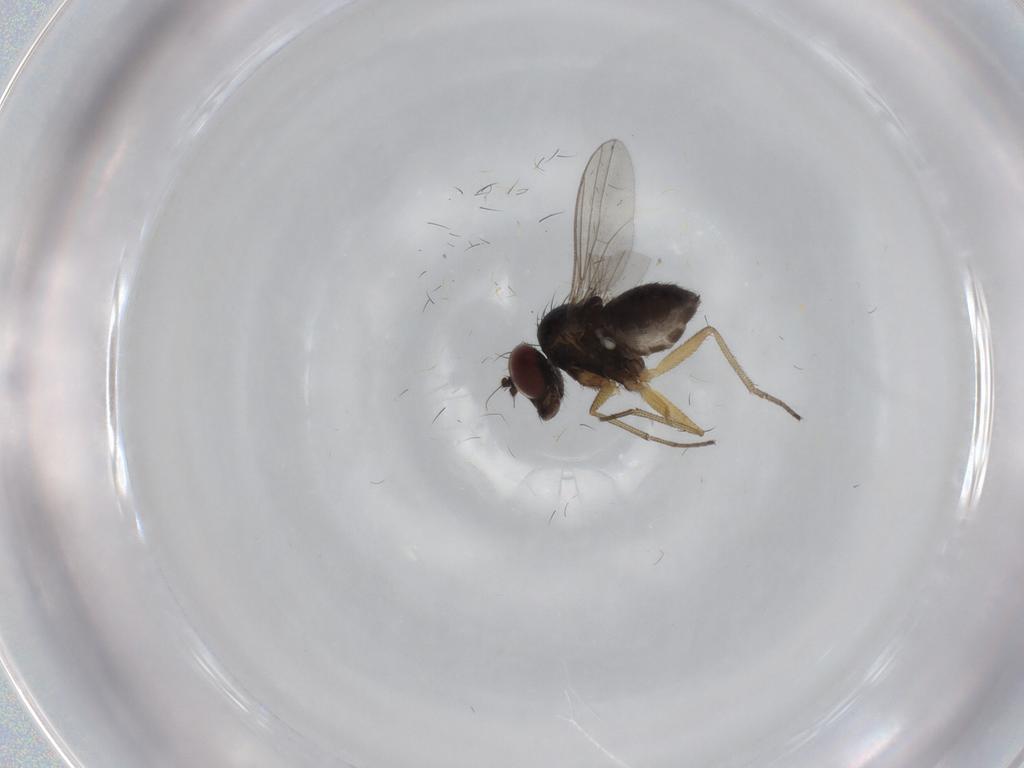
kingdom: Animalia
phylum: Arthropoda
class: Insecta
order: Diptera
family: Dolichopodidae
